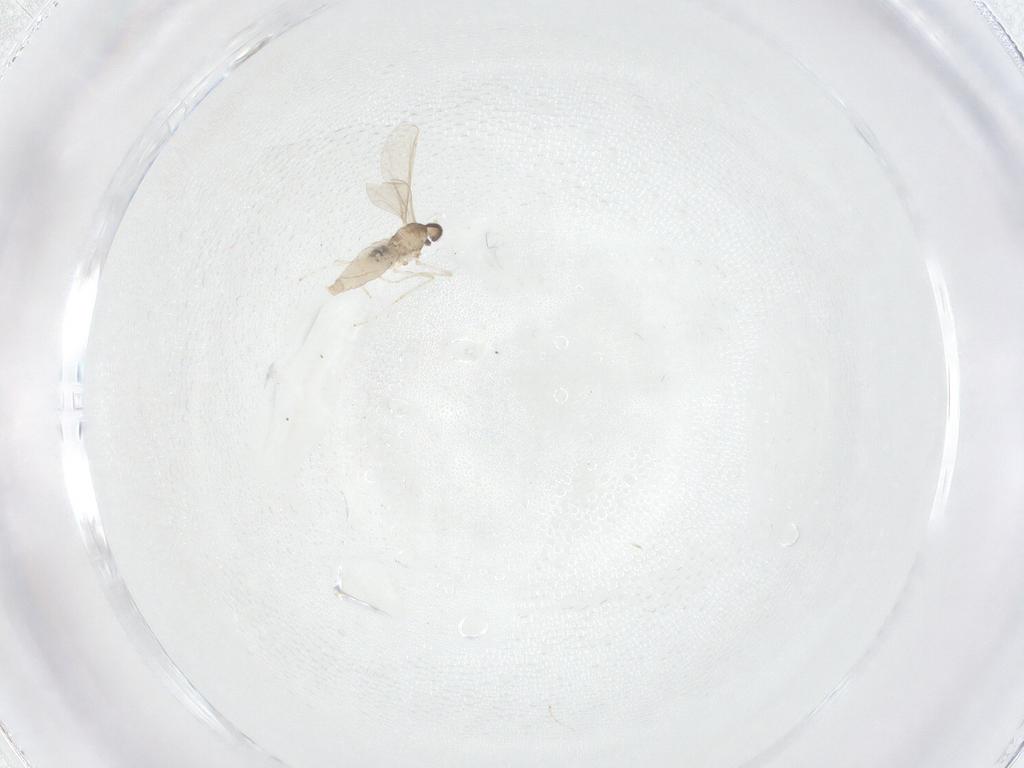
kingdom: Animalia
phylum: Arthropoda
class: Insecta
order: Diptera
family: Cecidomyiidae
